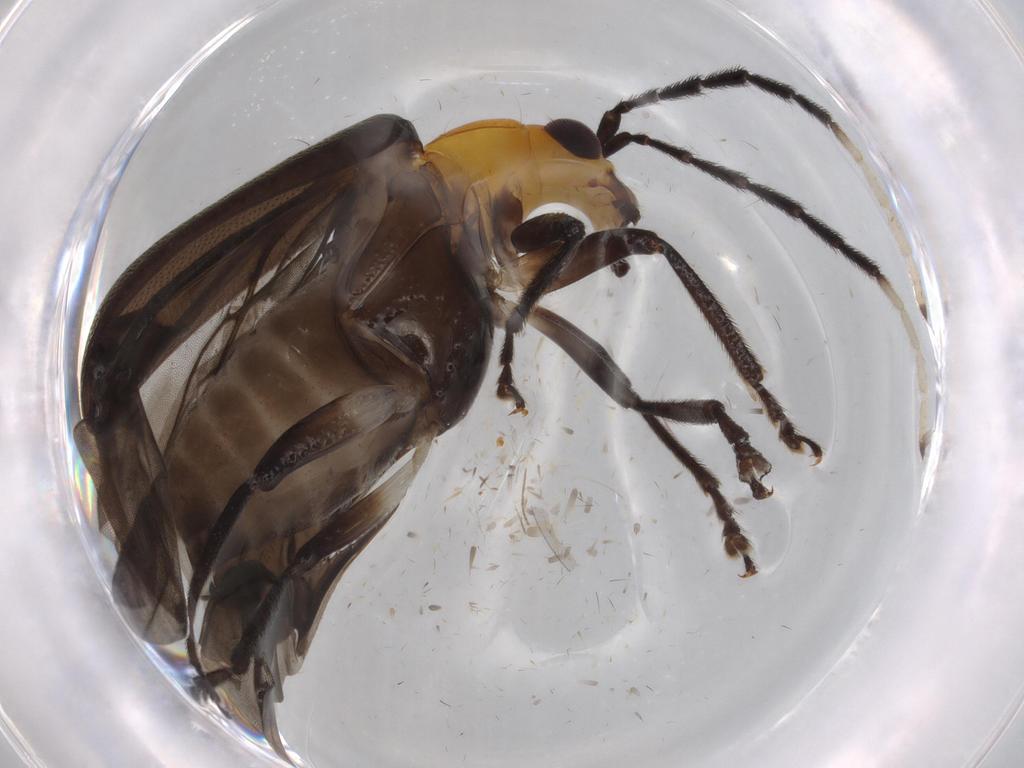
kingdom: Animalia
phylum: Arthropoda
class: Insecta
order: Coleoptera
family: Chrysomelidae
